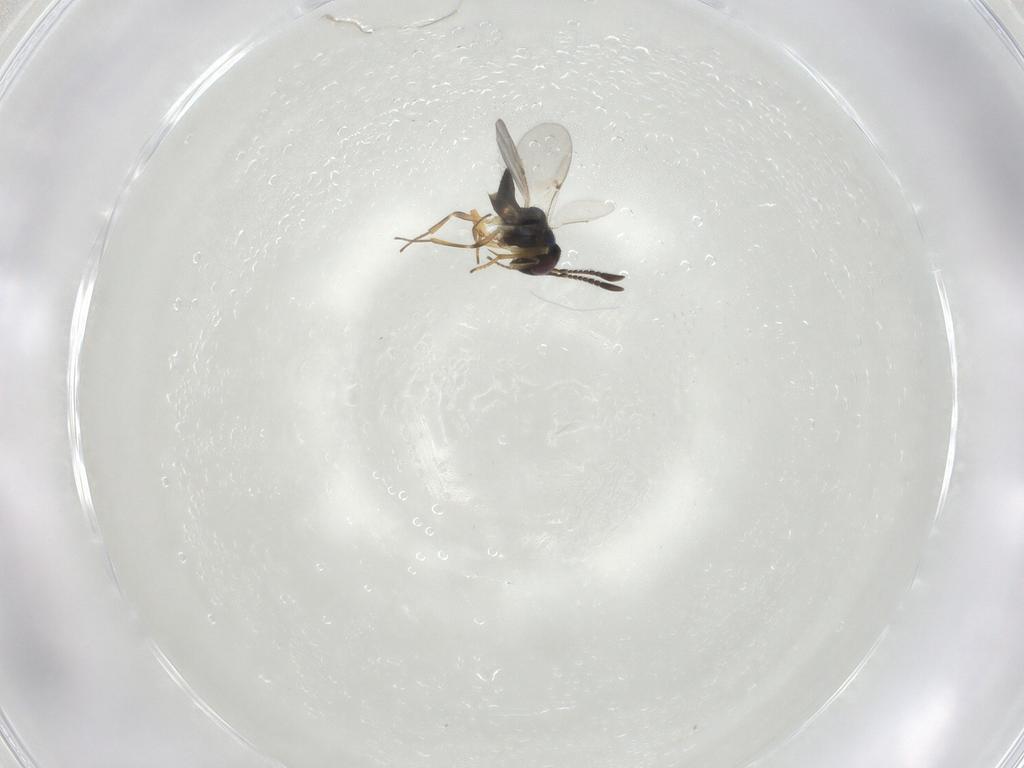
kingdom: Animalia
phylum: Arthropoda
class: Insecta
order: Hymenoptera
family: Encyrtidae
